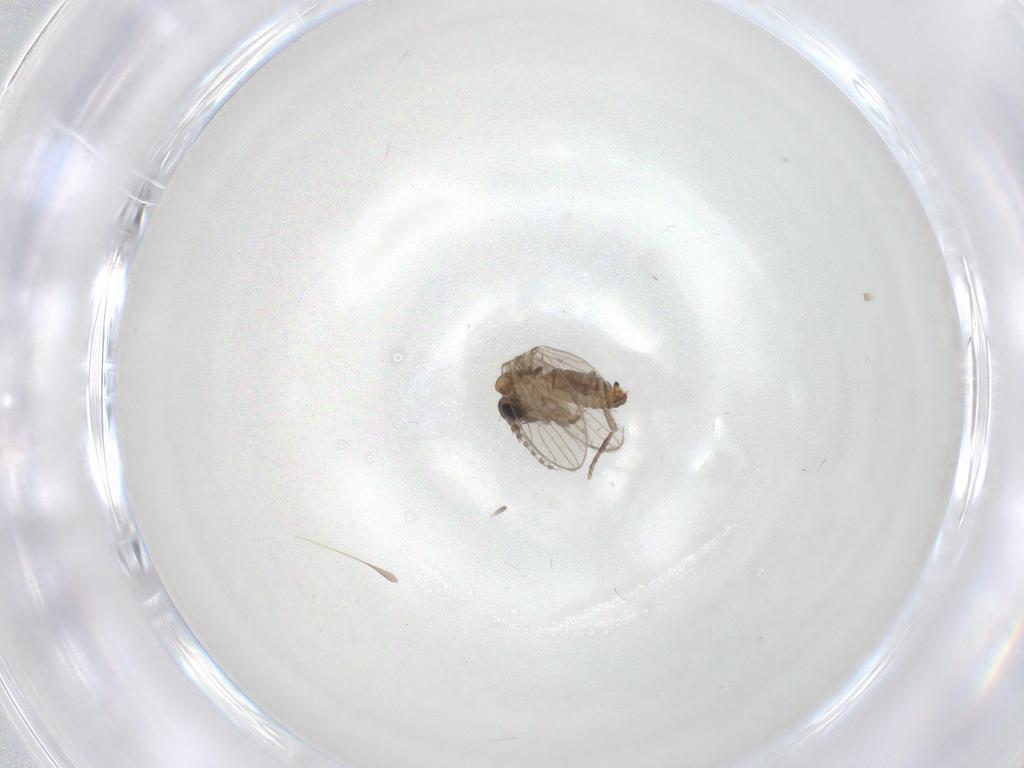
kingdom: Animalia
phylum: Arthropoda
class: Insecta
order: Diptera
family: Psychodidae
